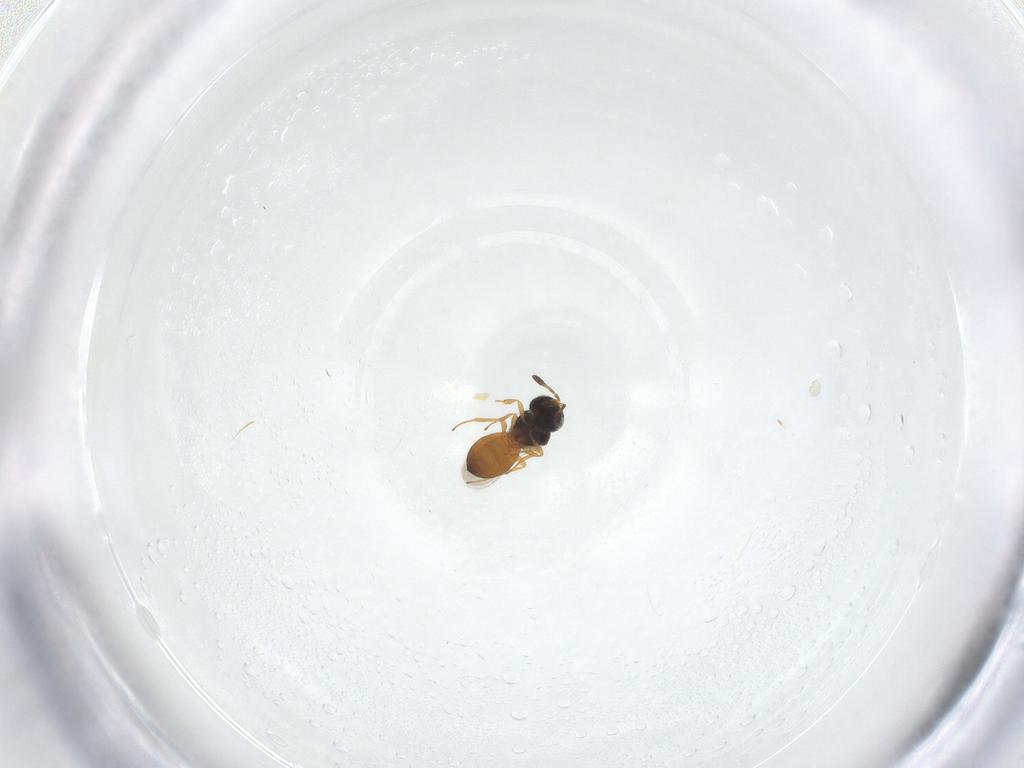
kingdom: Animalia
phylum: Arthropoda
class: Insecta
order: Hymenoptera
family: Scelionidae
